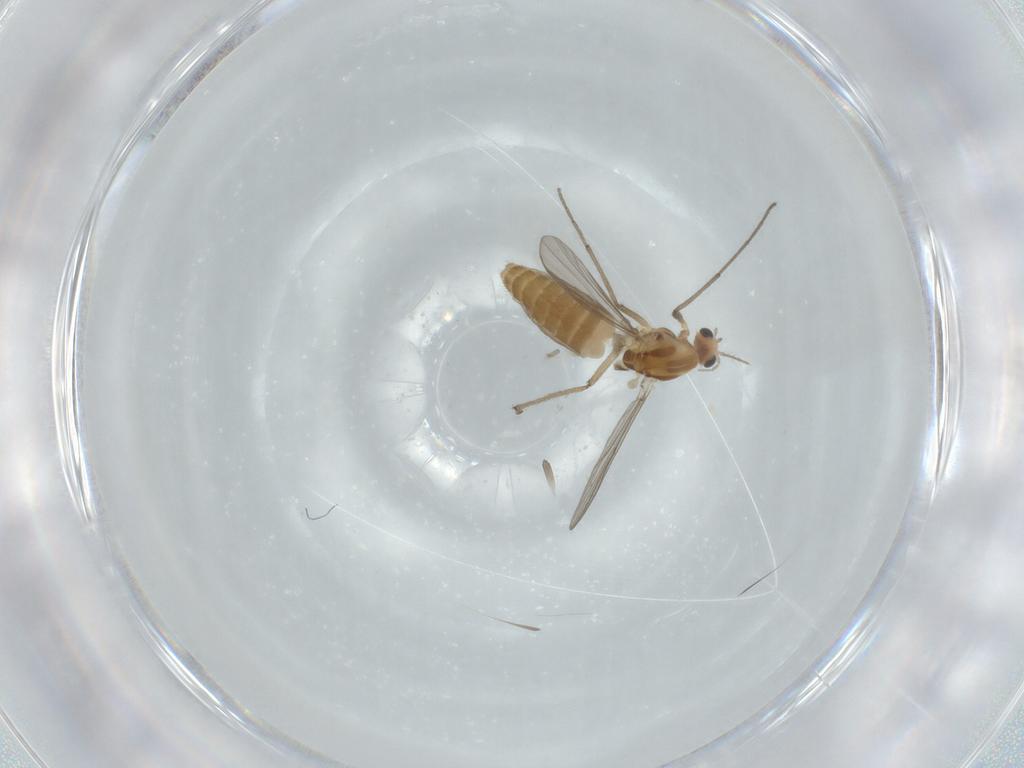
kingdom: Animalia
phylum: Arthropoda
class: Insecta
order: Diptera
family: Chironomidae
